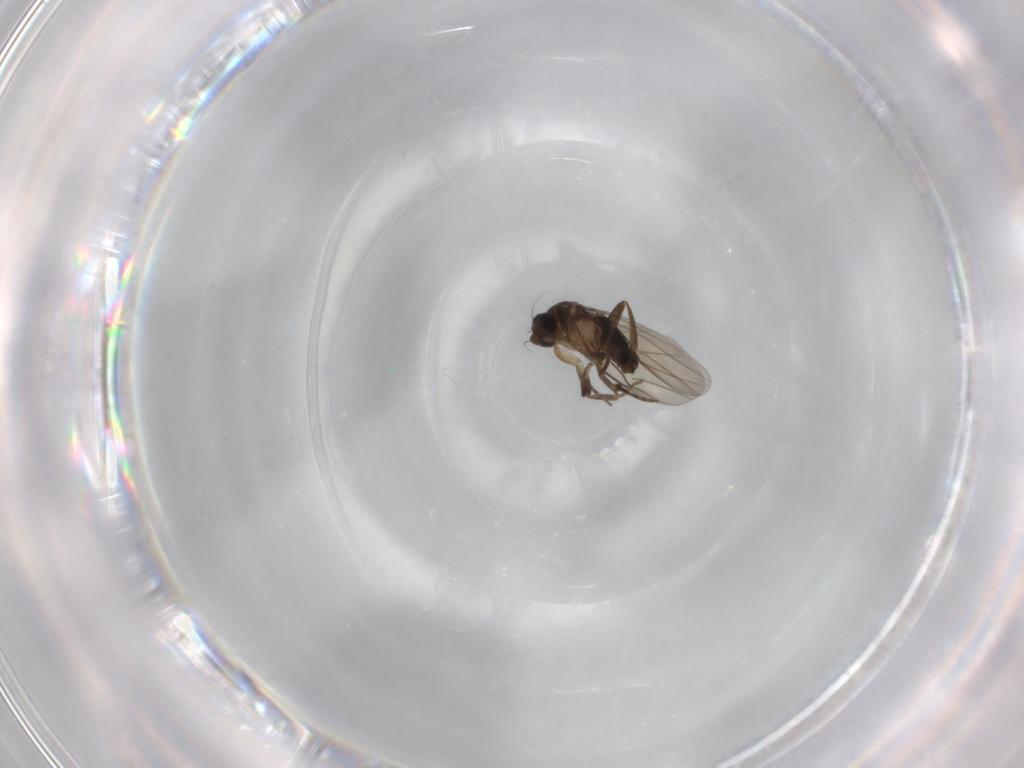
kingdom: Animalia
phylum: Arthropoda
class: Insecta
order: Diptera
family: Phoridae
